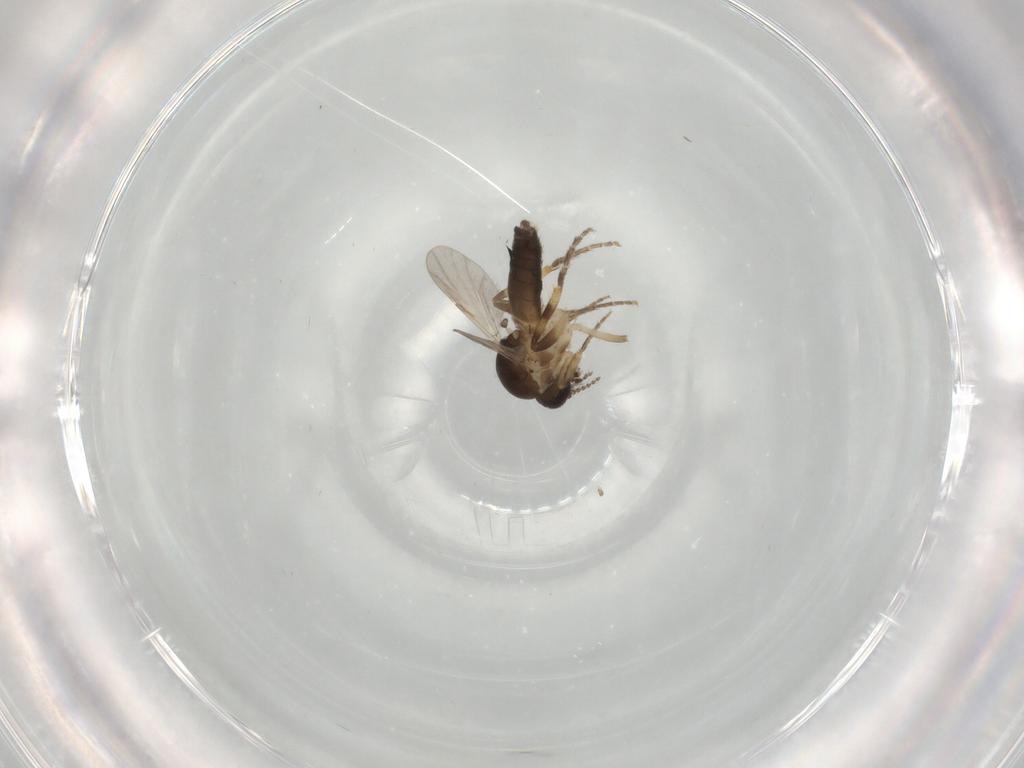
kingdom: Animalia
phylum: Arthropoda
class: Insecta
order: Diptera
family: Ceratopogonidae
